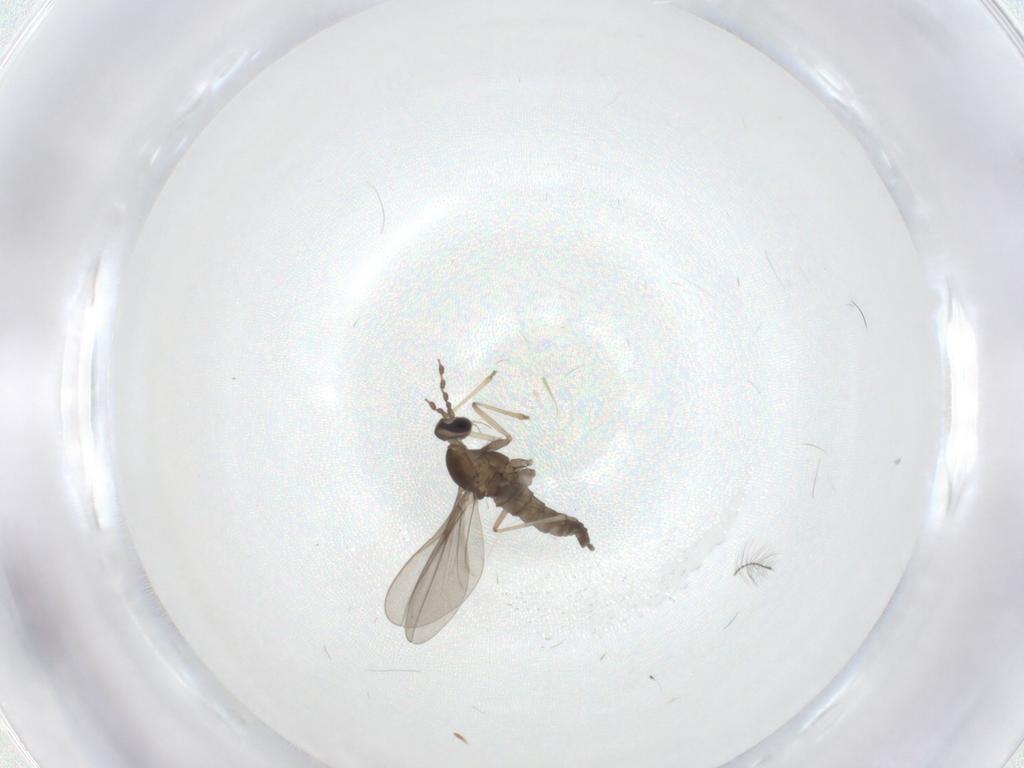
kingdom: Animalia
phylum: Arthropoda
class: Insecta
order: Diptera
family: Cecidomyiidae
